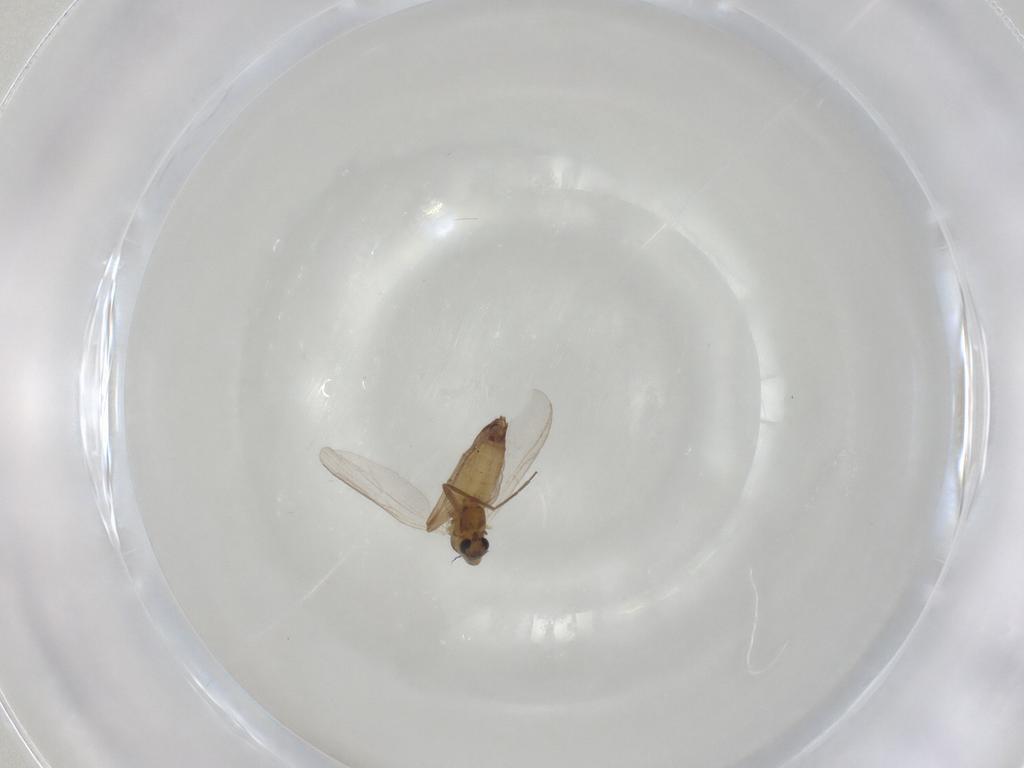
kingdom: Animalia
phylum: Arthropoda
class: Insecta
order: Diptera
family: Chironomidae
